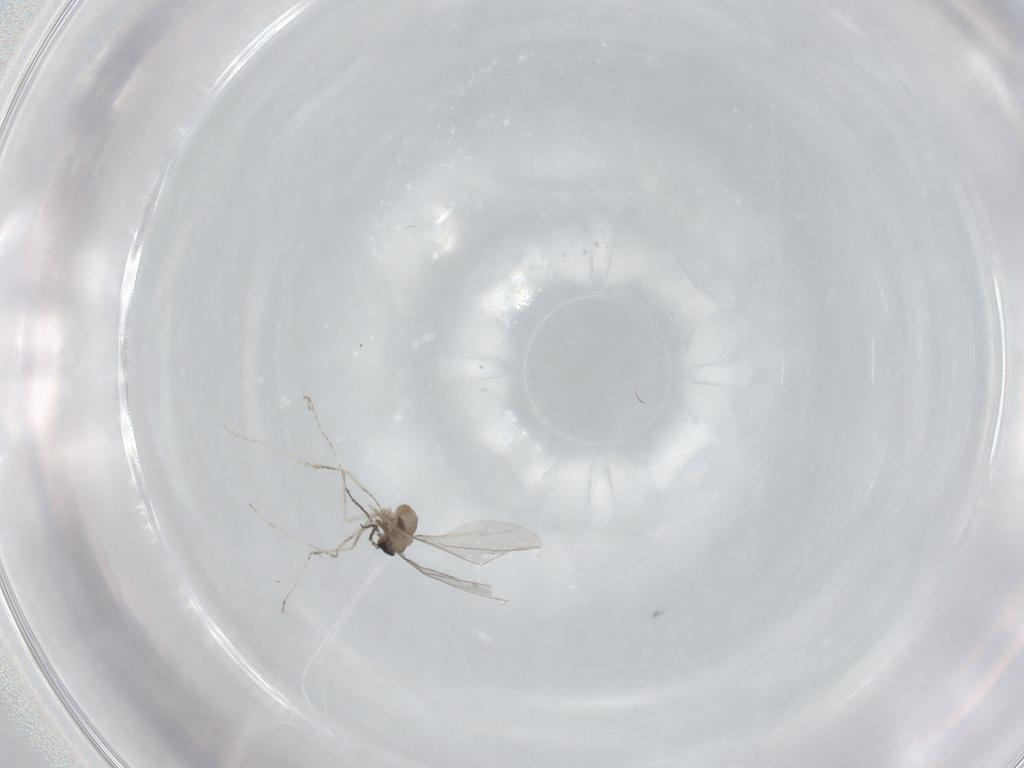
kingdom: Animalia
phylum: Arthropoda
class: Insecta
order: Diptera
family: Cecidomyiidae
